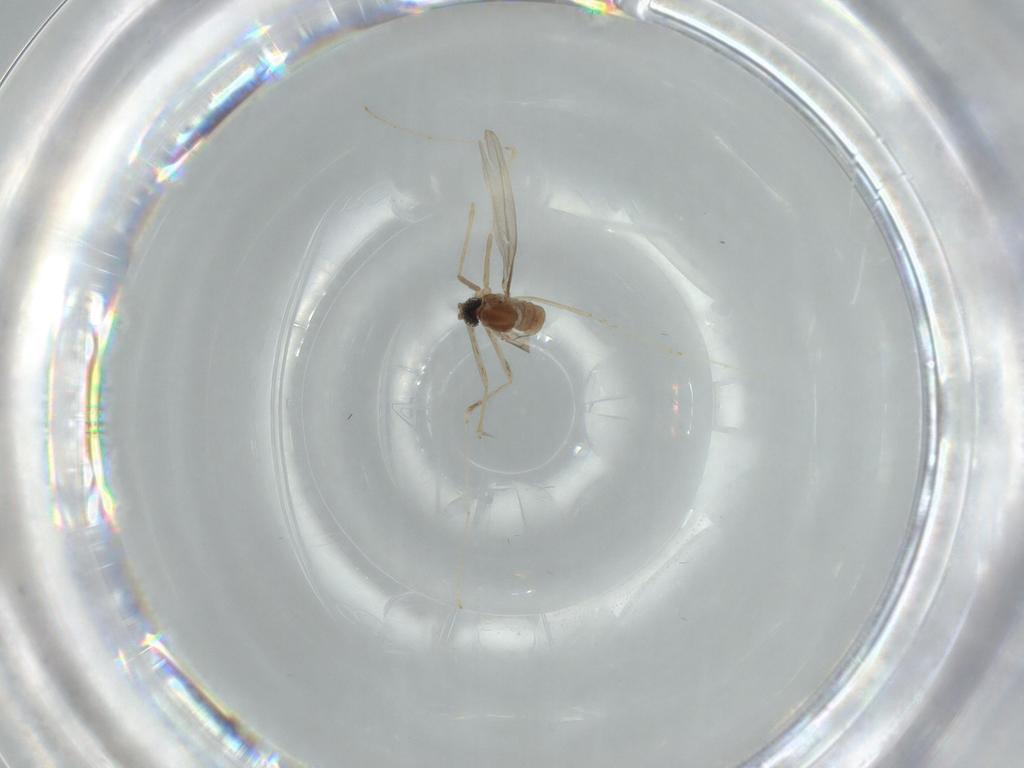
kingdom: Animalia
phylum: Arthropoda
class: Insecta
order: Diptera
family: Chironomidae
